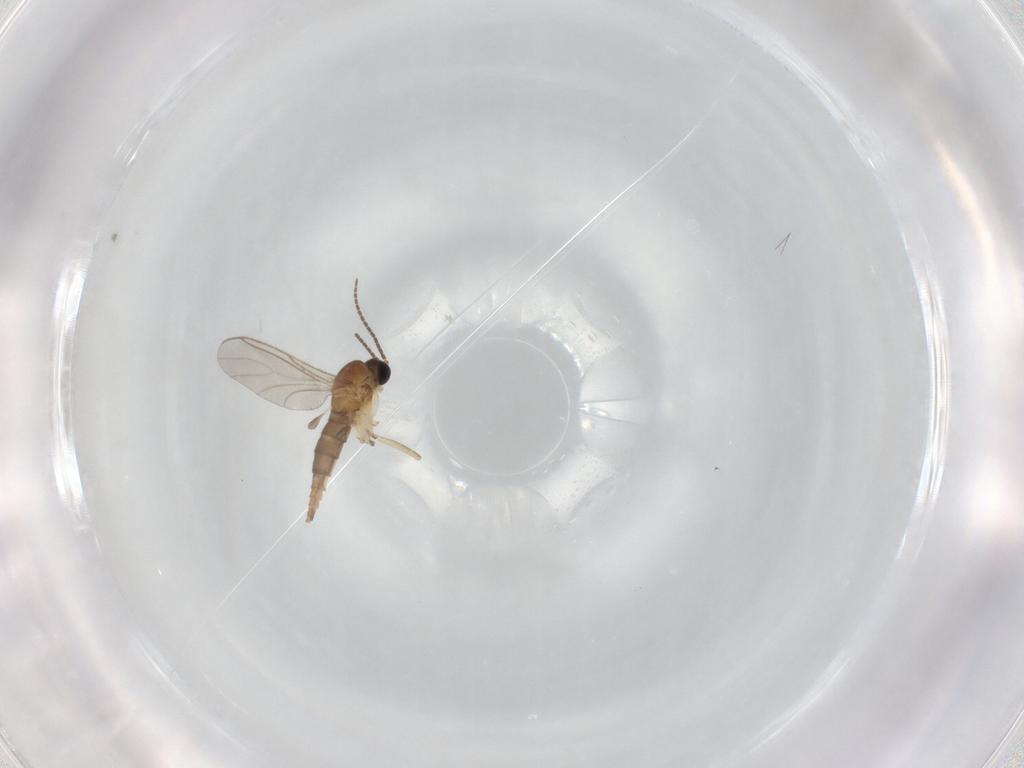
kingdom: Animalia
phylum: Arthropoda
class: Insecta
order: Diptera
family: Sciaridae
